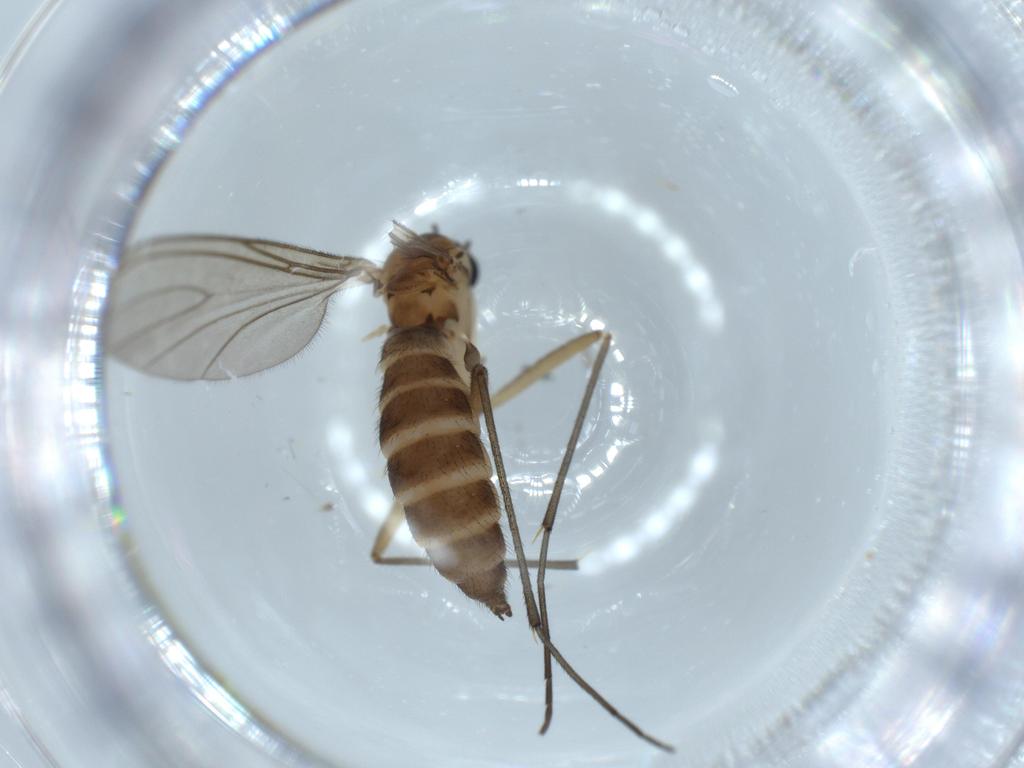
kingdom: Animalia
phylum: Arthropoda
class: Insecta
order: Diptera
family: Sciaridae
